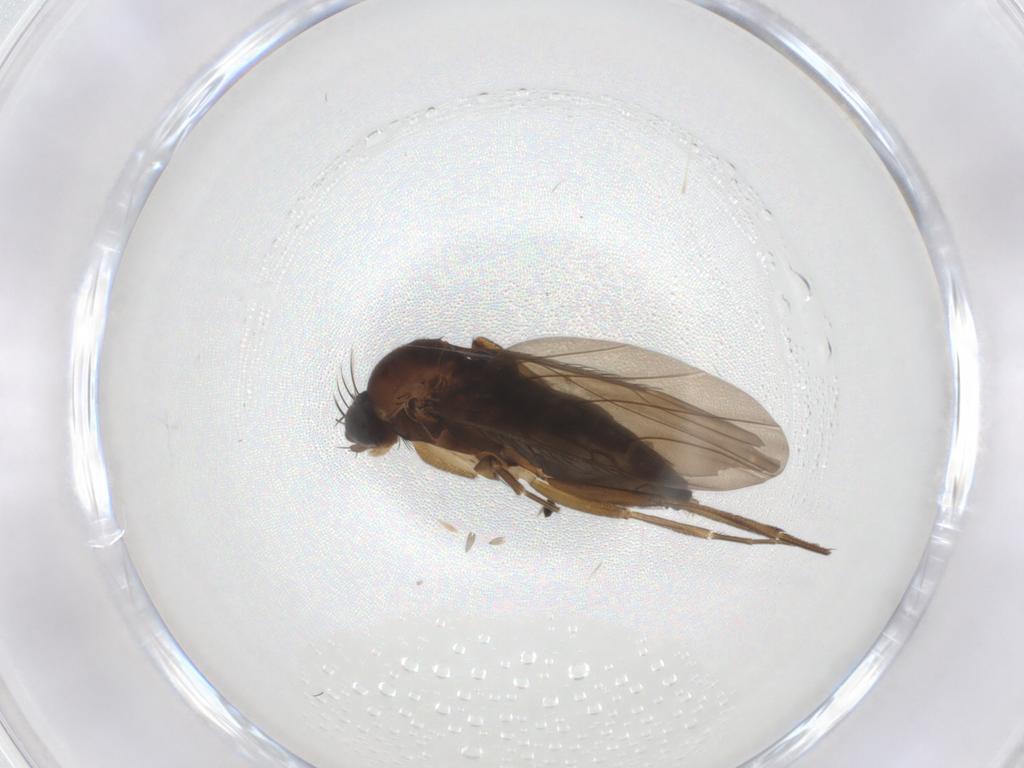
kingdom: Animalia
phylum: Arthropoda
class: Insecta
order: Diptera
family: Phoridae
